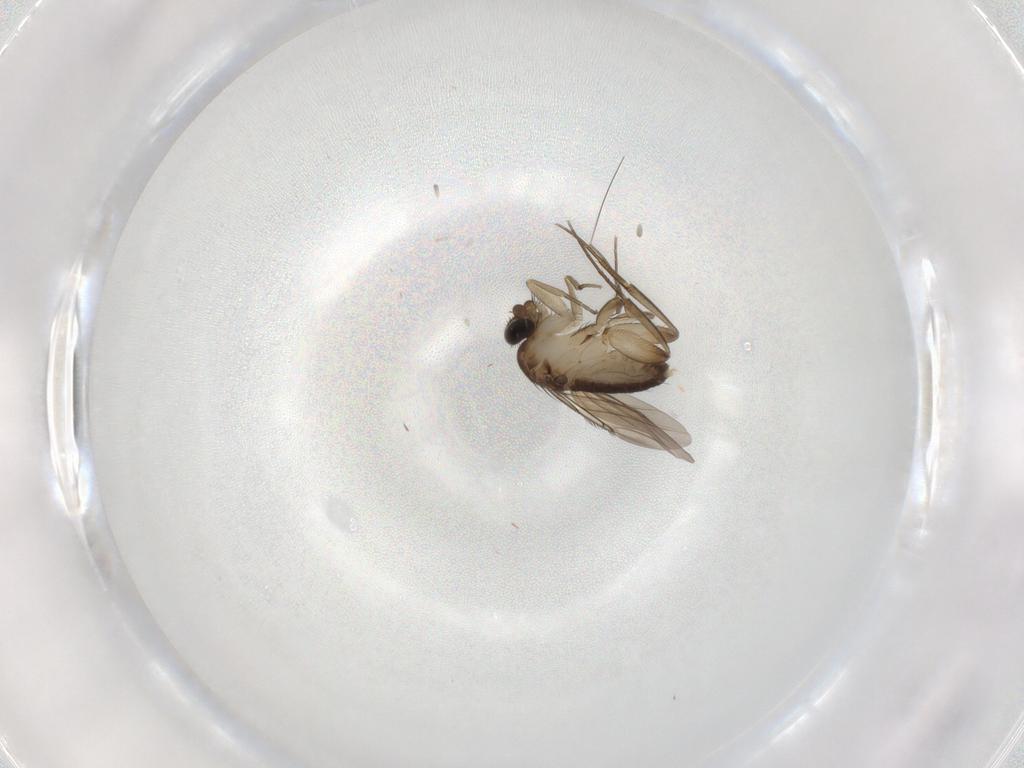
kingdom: Animalia
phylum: Arthropoda
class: Insecta
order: Diptera
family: Phoridae
